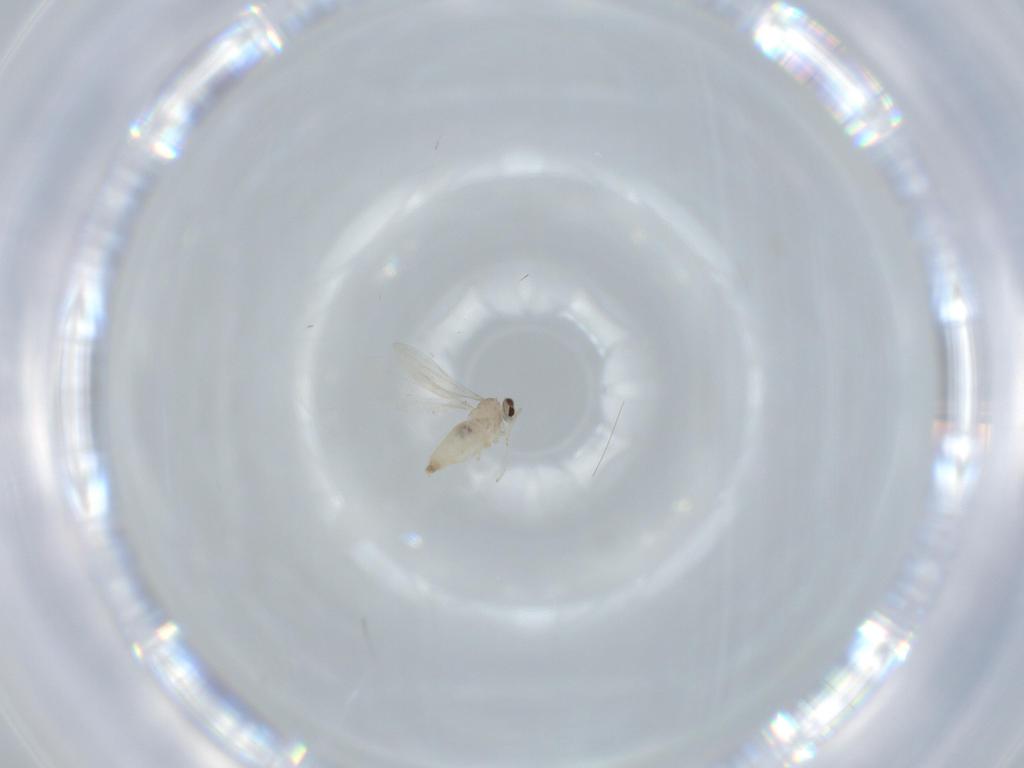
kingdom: Animalia
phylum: Arthropoda
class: Insecta
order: Diptera
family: Cecidomyiidae
